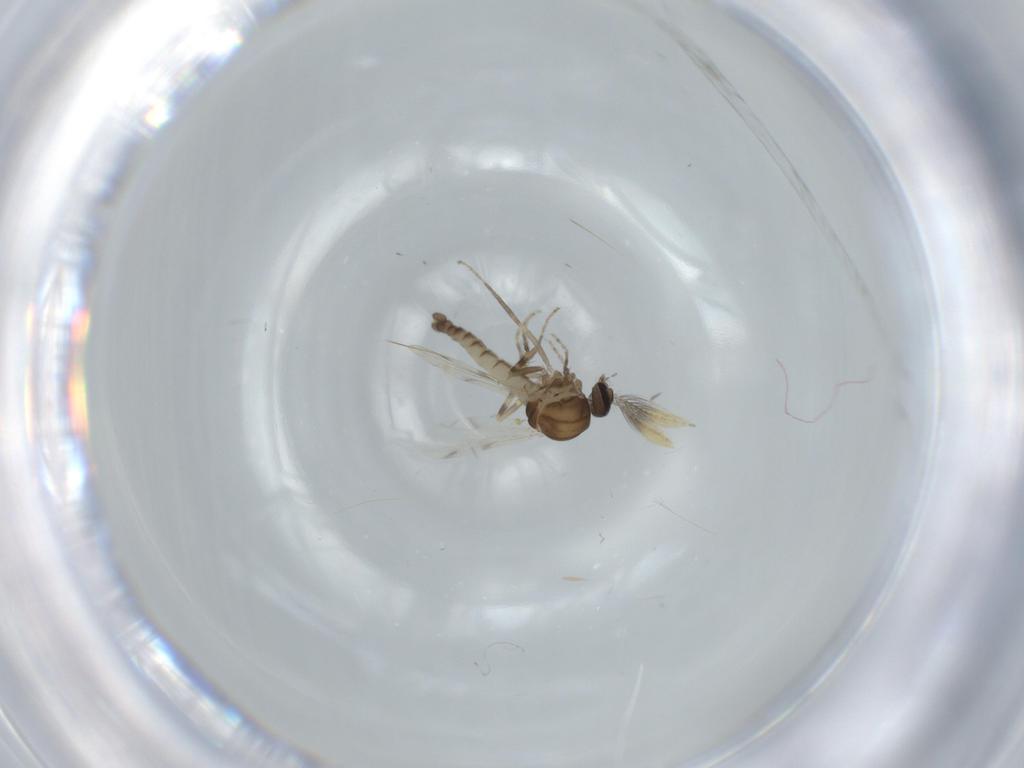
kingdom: Animalia
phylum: Arthropoda
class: Insecta
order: Diptera
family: Ceratopogonidae
